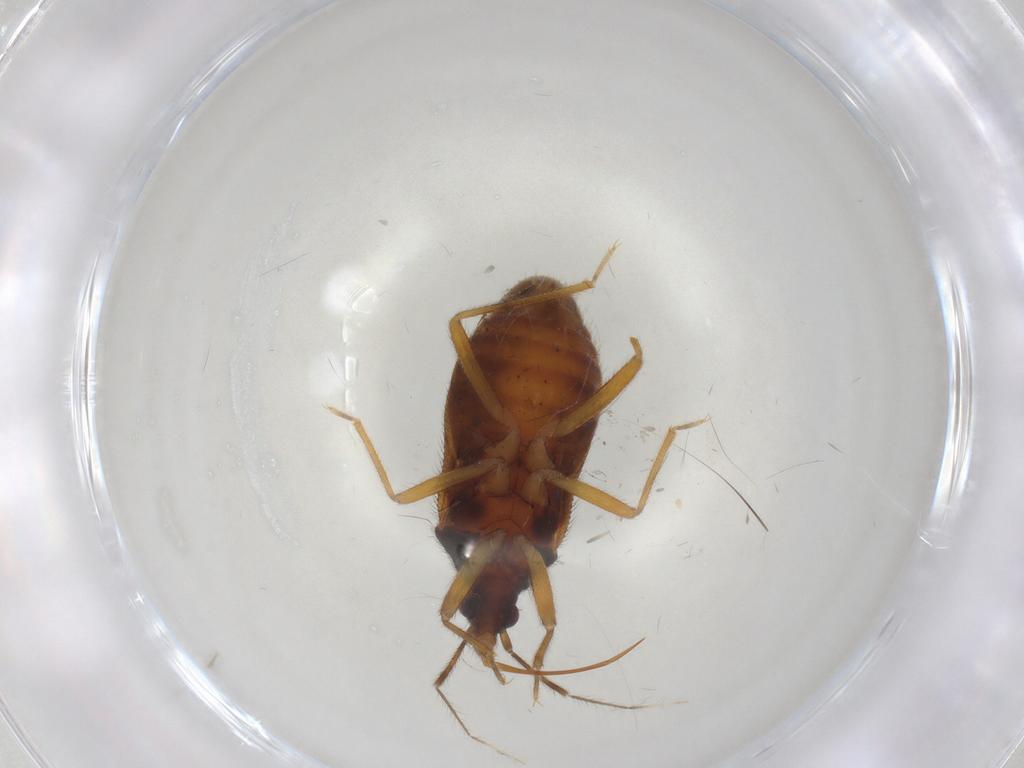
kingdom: Animalia
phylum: Arthropoda
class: Insecta
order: Hemiptera
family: Anthocoridae
